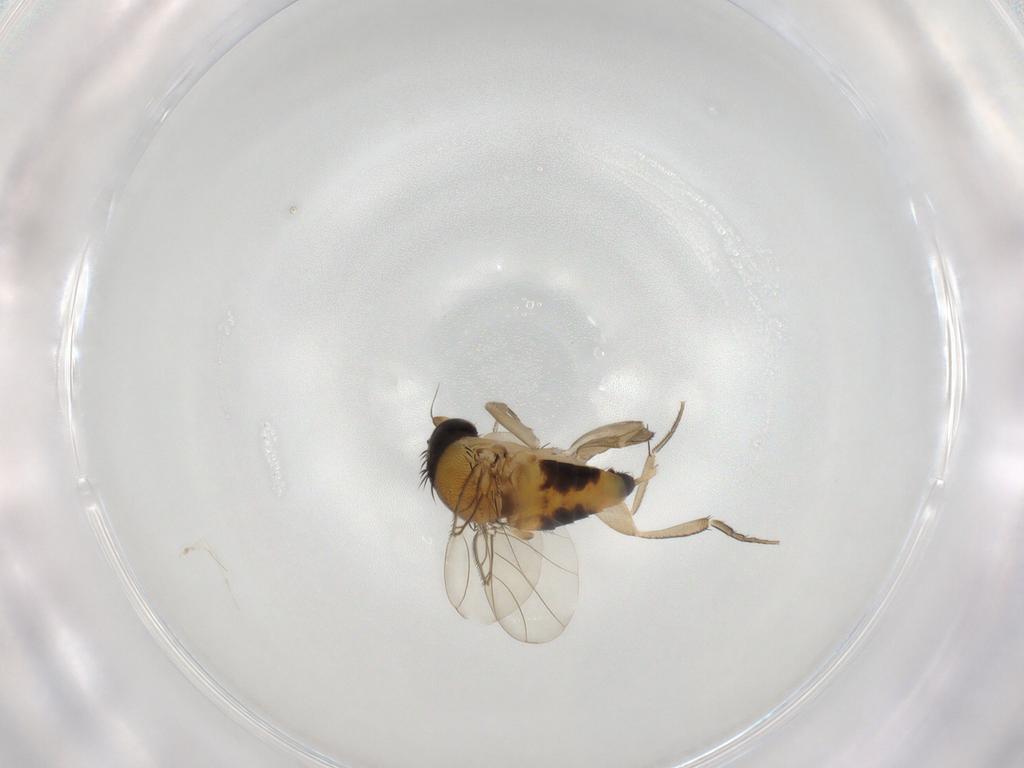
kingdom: Animalia
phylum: Arthropoda
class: Insecta
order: Diptera
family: Phoridae
